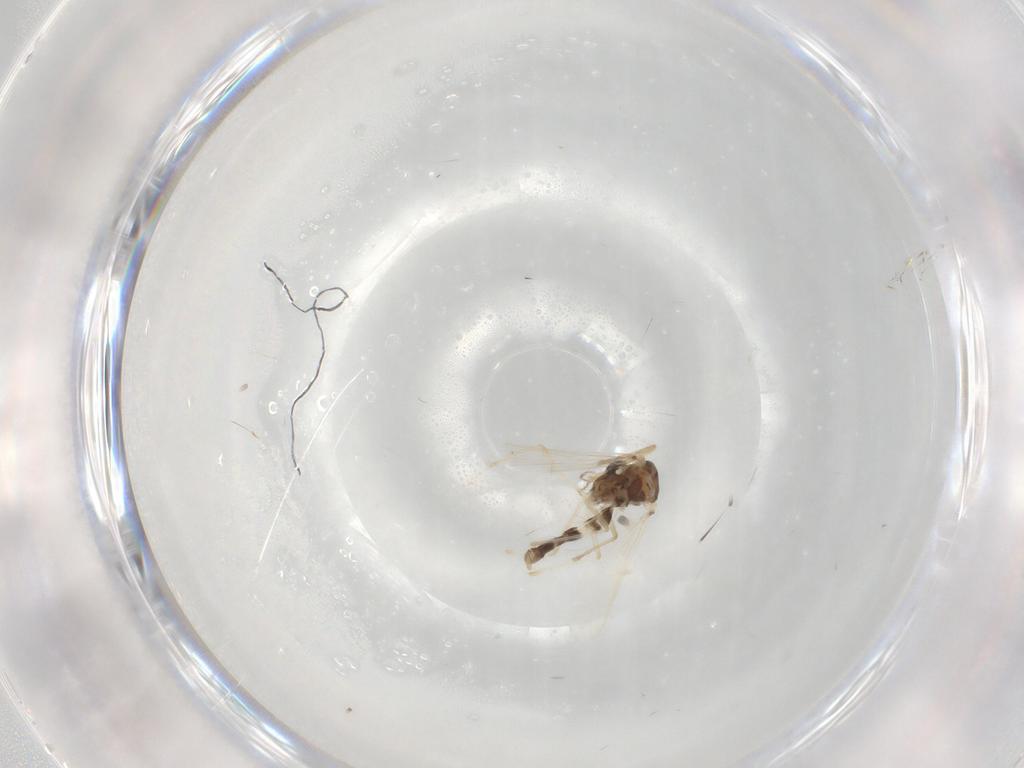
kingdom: Animalia
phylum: Arthropoda
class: Insecta
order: Diptera
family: Chironomidae
